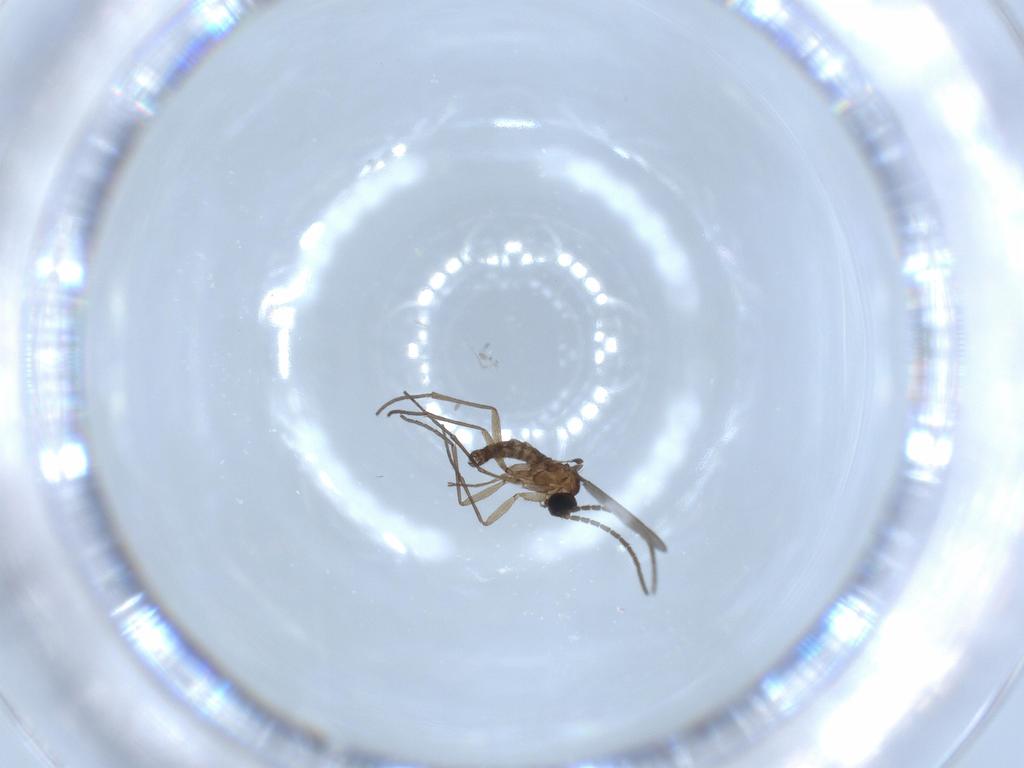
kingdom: Animalia
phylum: Arthropoda
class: Insecta
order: Diptera
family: Sciaridae
